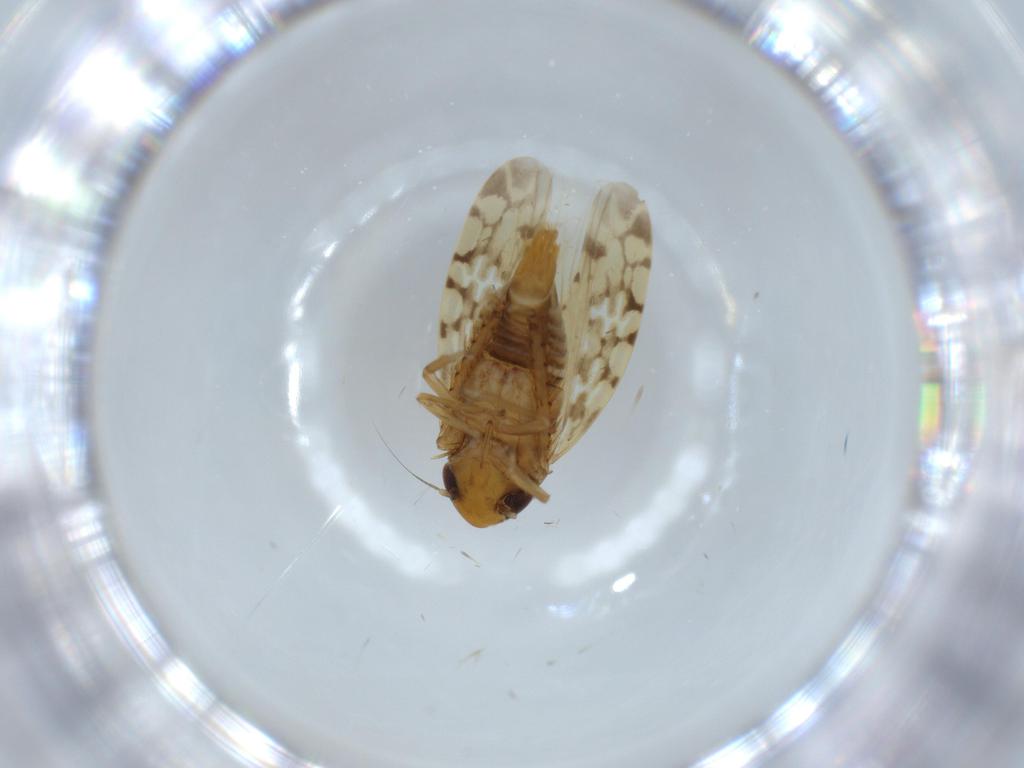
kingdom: Animalia
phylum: Arthropoda
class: Insecta
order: Hemiptera
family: Cicadellidae
